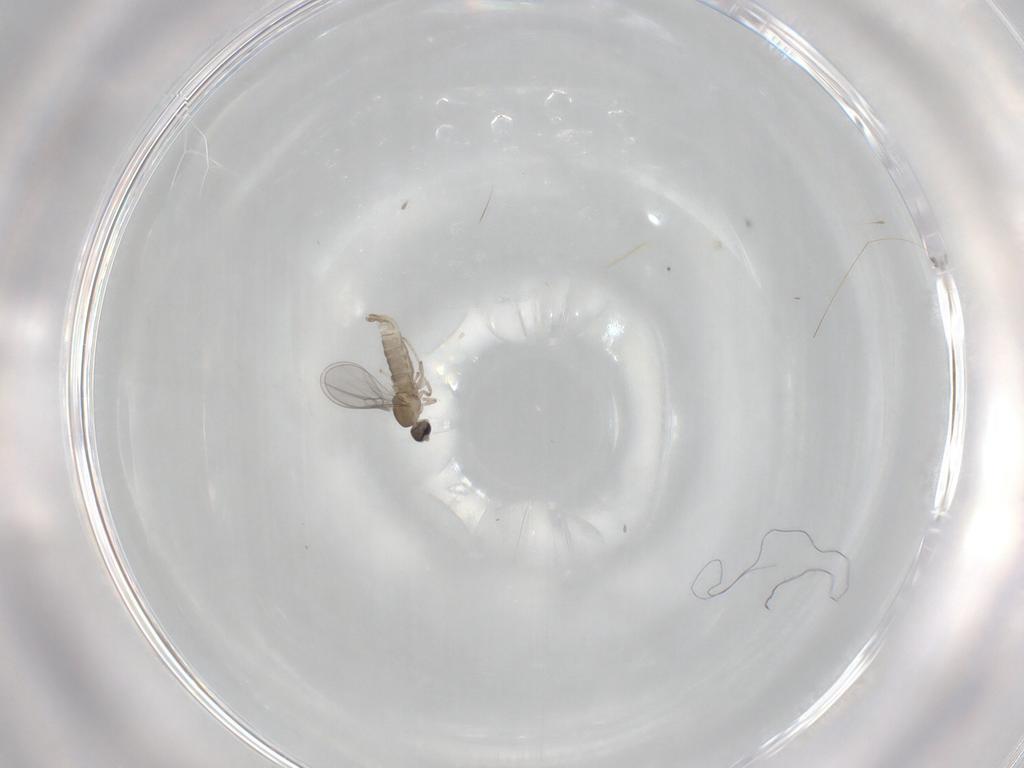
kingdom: Animalia
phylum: Arthropoda
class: Insecta
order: Diptera
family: Cecidomyiidae
